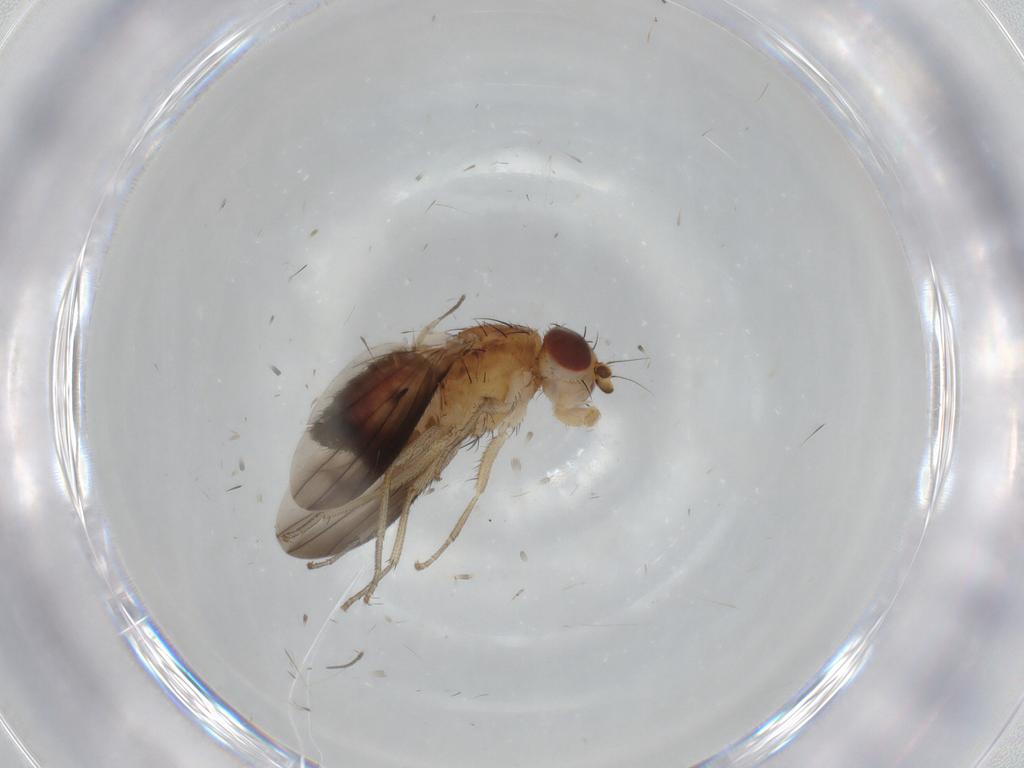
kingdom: Animalia
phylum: Arthropoda
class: Insecta
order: Diptera
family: Heleomyzidae
